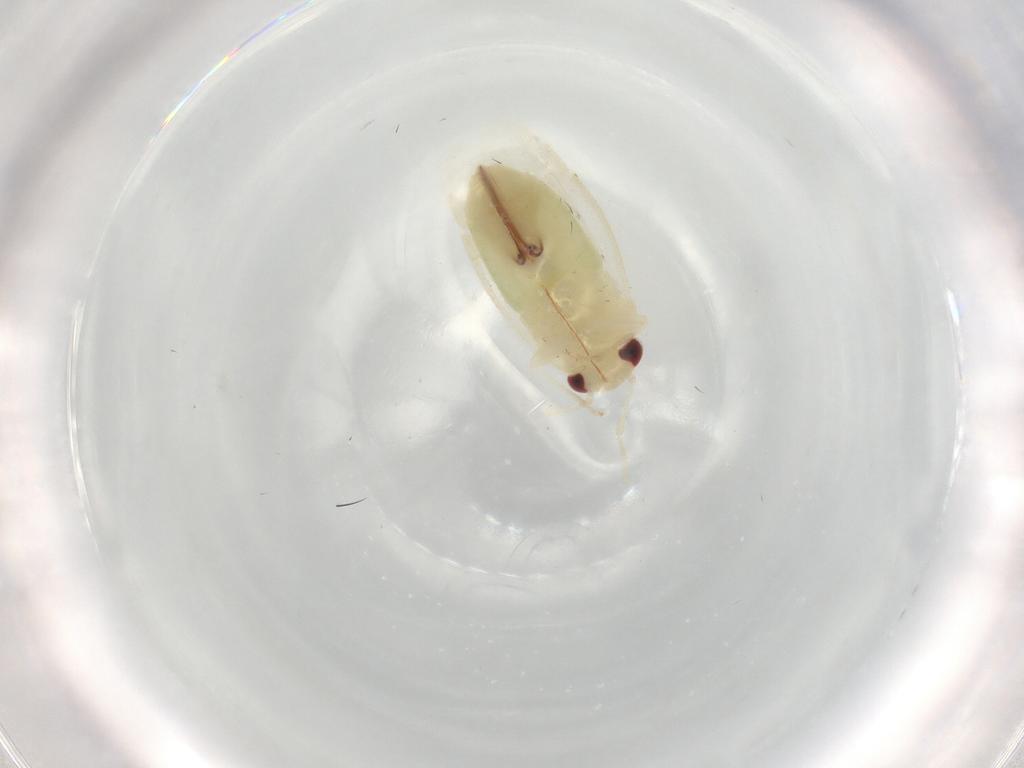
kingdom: Animalia
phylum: Arthropoda
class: Insecta
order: Hemiptera
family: Miridae
